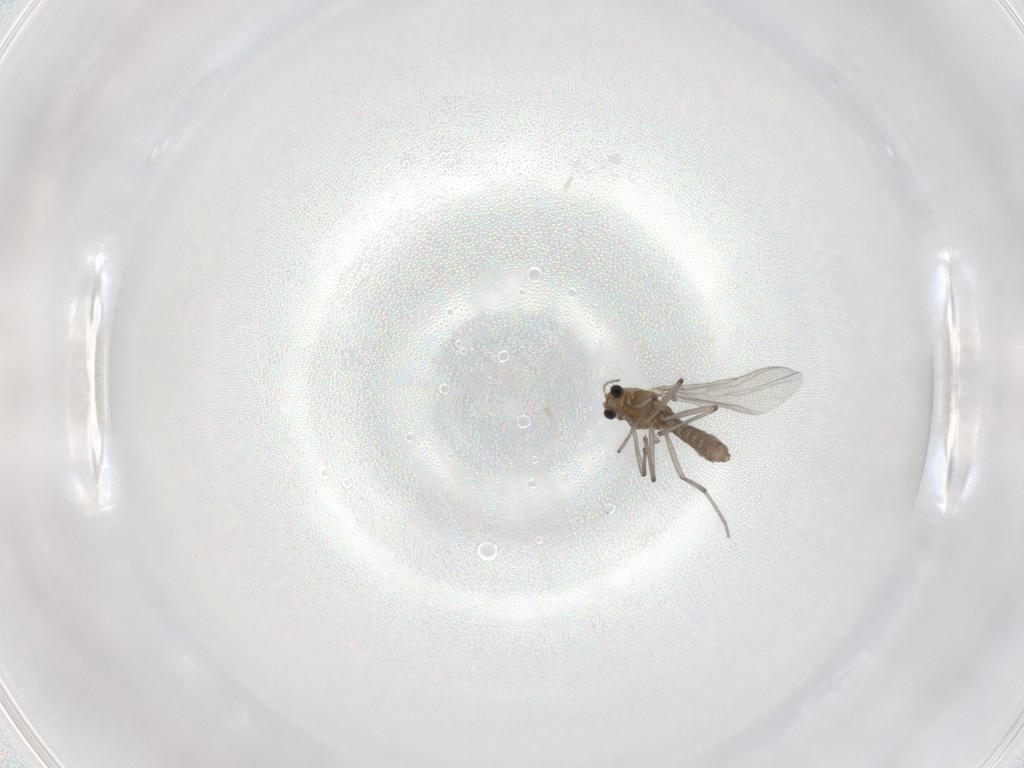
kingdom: Animalia
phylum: Arthropoda
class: Insecta
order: Diptera
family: Chironomidae
